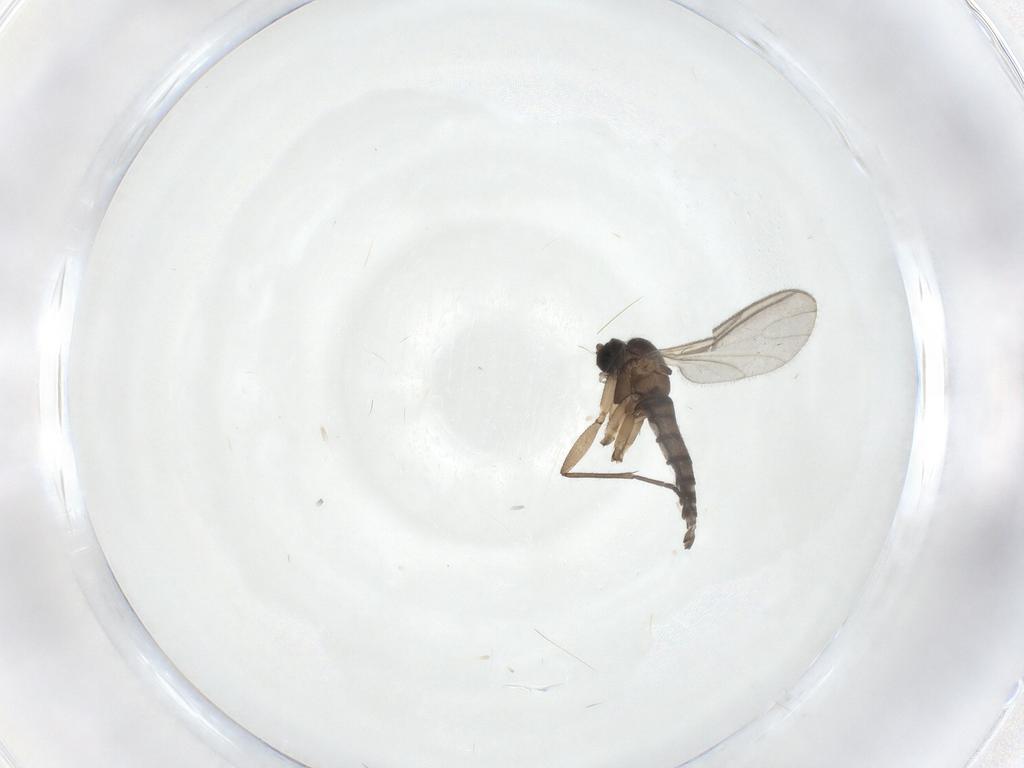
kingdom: Animalia
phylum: Arthropoda
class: Insecta
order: Diptera
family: Sciaridae
